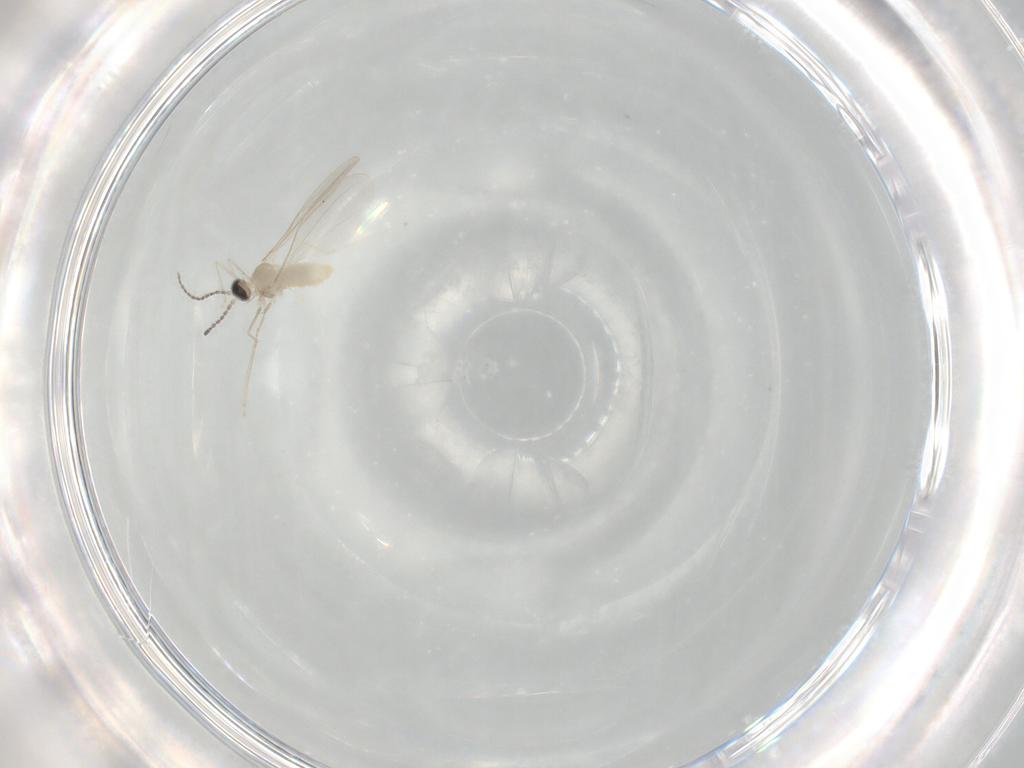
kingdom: Animalia
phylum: Arthropoda
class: Insecta
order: Diptera
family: Cecidomyiidae
